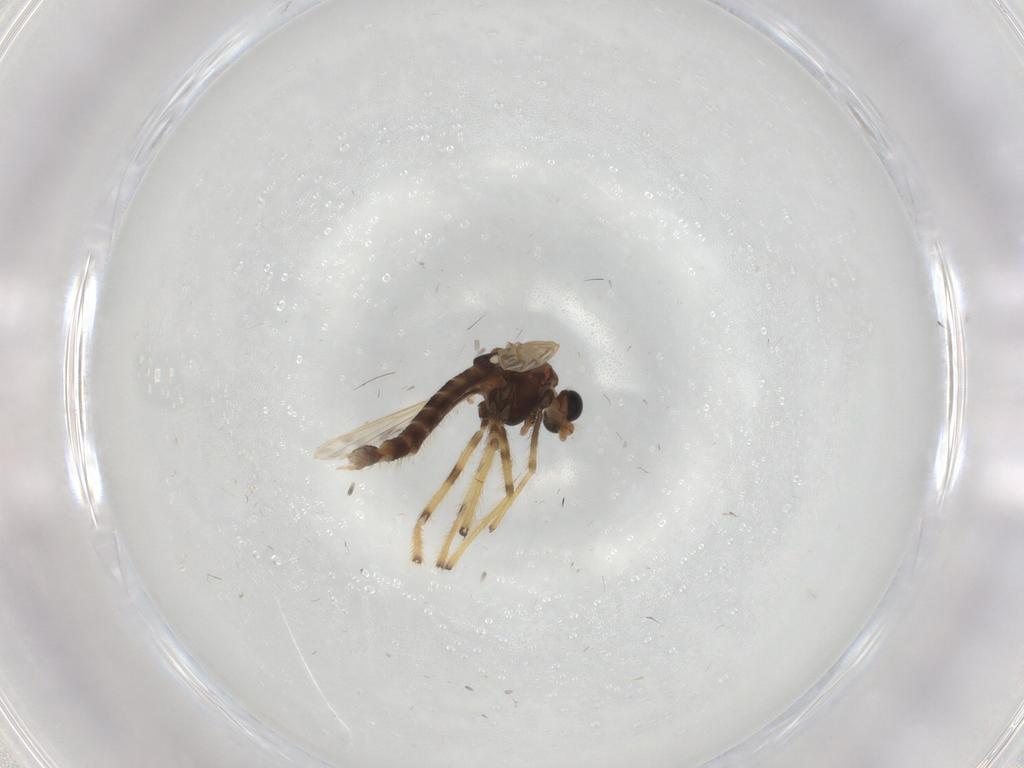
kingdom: Animalia
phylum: Arthropoda
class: Insecta
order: Diptera
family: Chironomidae
